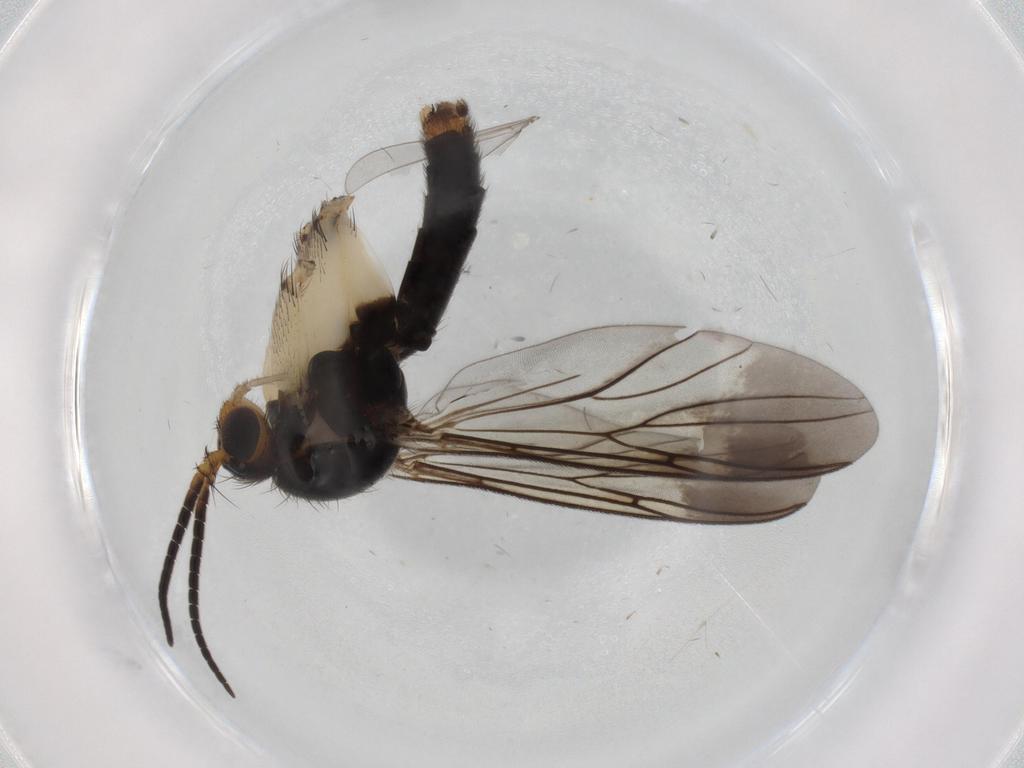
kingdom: Animalia
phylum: Arthropoda
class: Insecta
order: Diptera
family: Mycetophilidae
